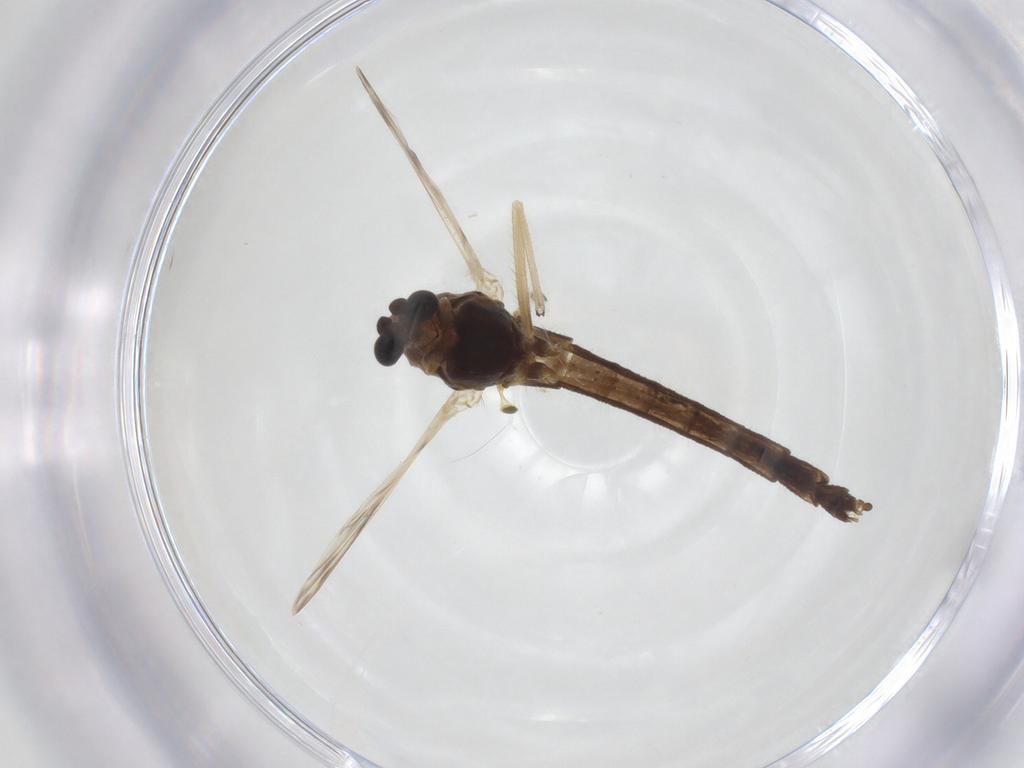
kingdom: Animalia
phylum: Arthropoda
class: Insecta
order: Diptera
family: Chironomidae
